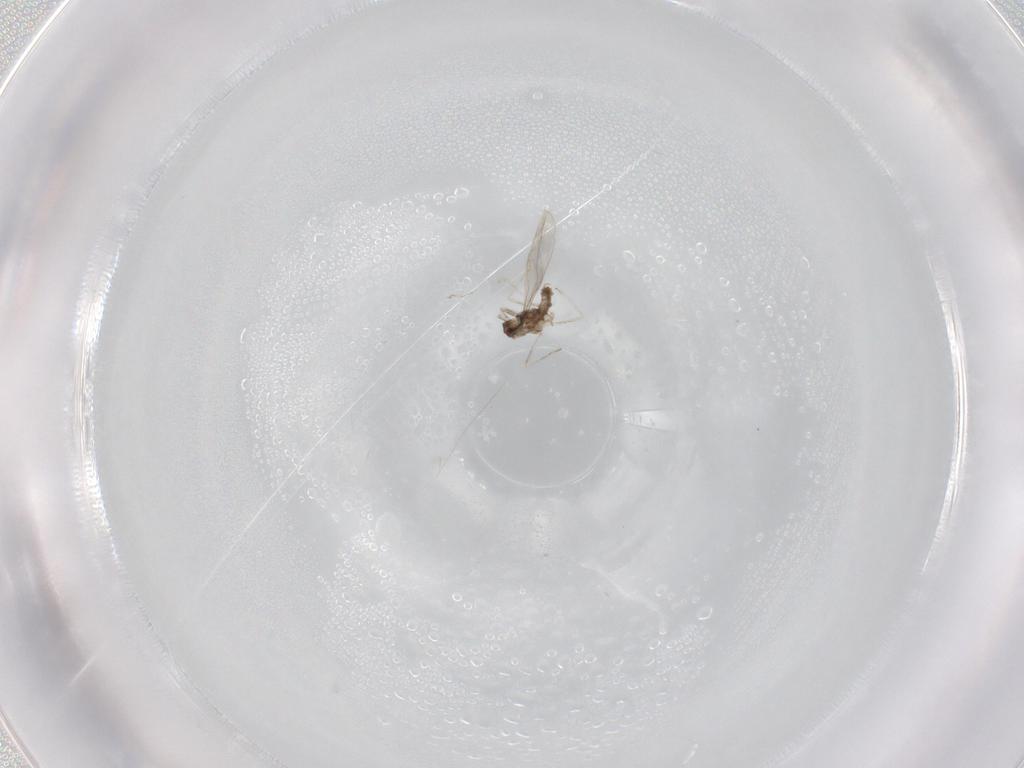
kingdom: Animalia
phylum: Arthropoda
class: Insecta
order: Diptera
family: Cecidomyiidae
